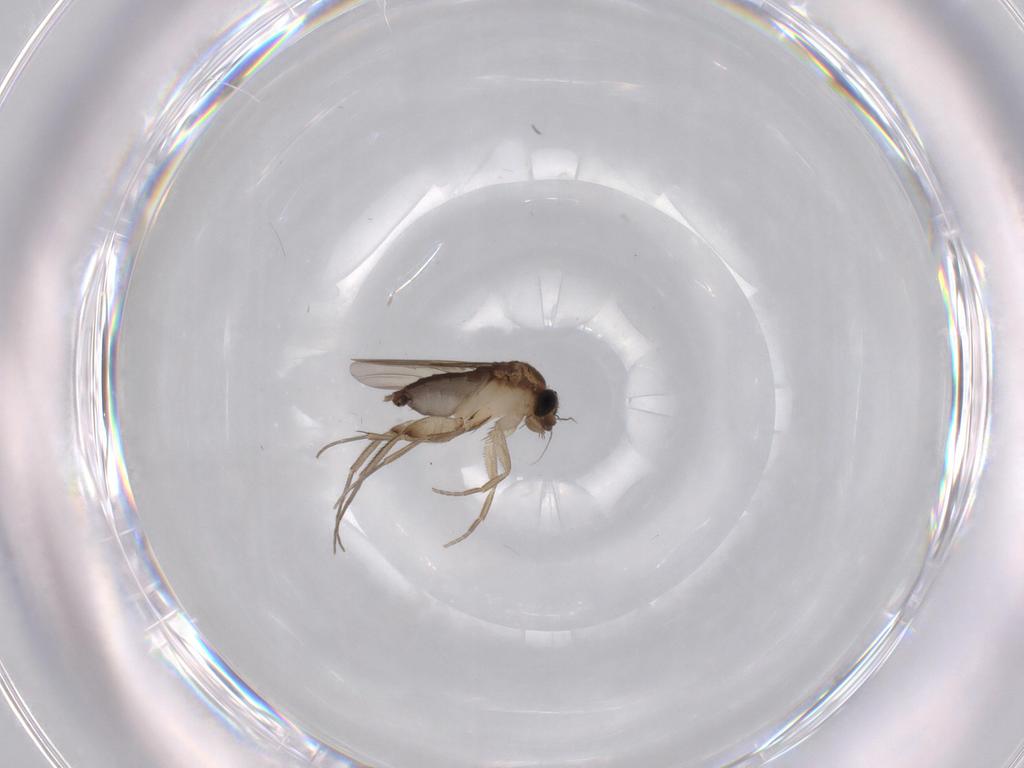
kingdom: Animalia
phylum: Arthropoda
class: Insecta
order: Diptera
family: Phoridae
